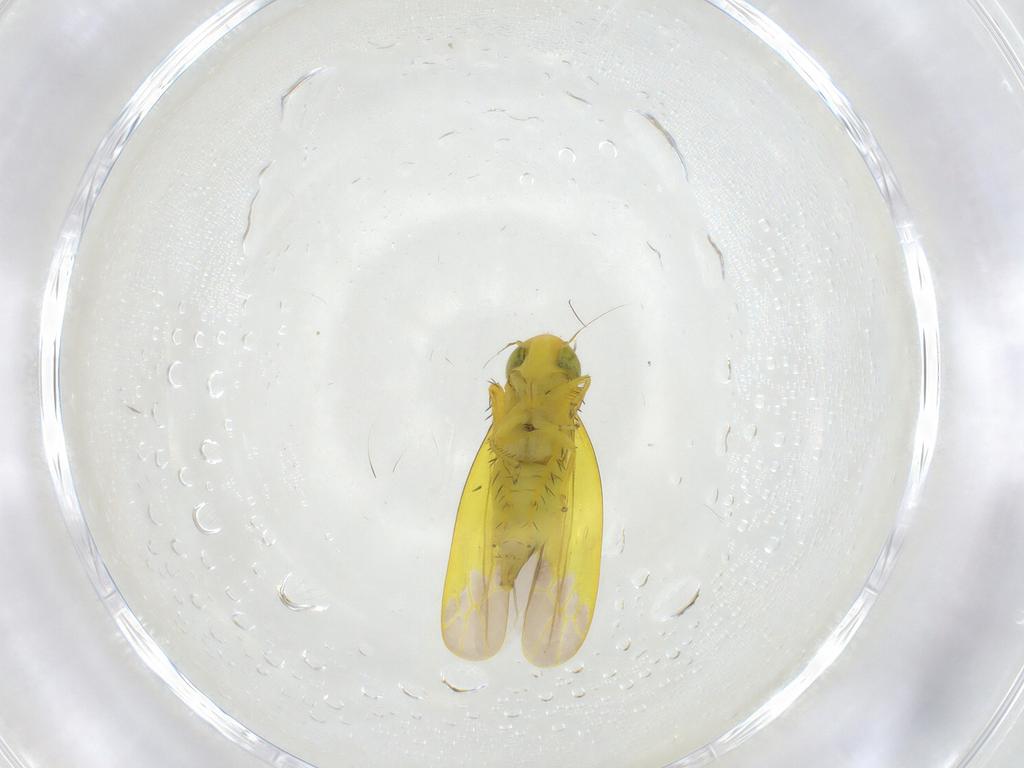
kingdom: Animalia
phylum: Arthropoda
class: Insecta
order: Hemiptera
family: Cicadellidae
